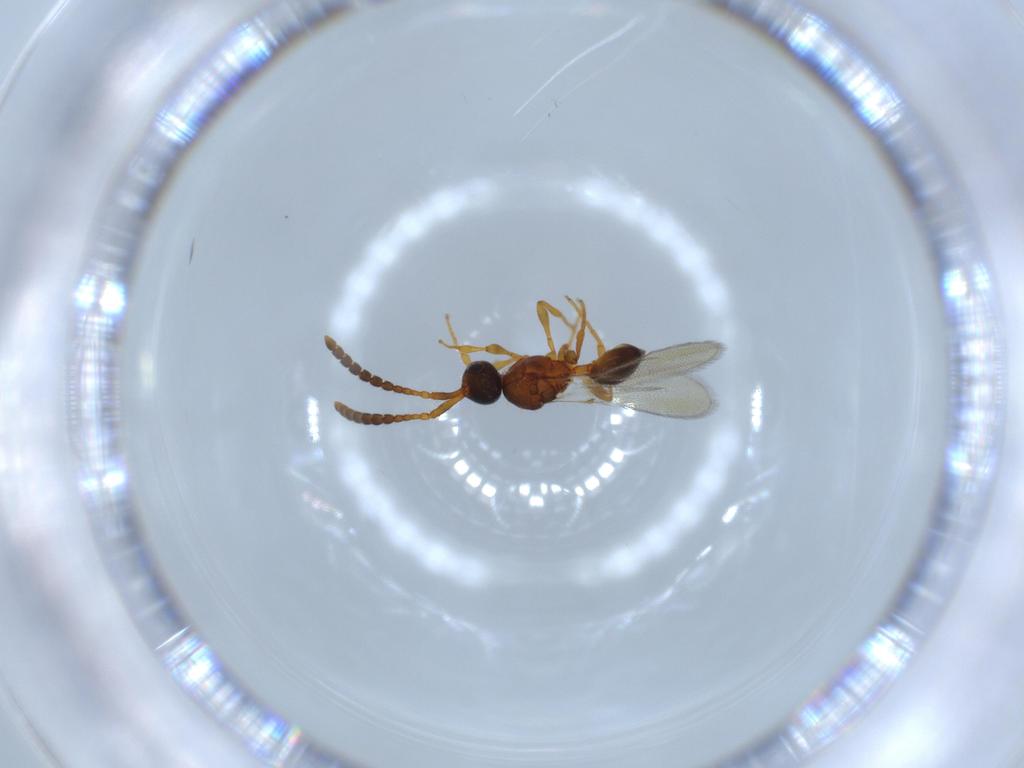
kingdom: Animalia
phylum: Arthropoda
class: Insecta
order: Hymenoptera
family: Diapriidae
